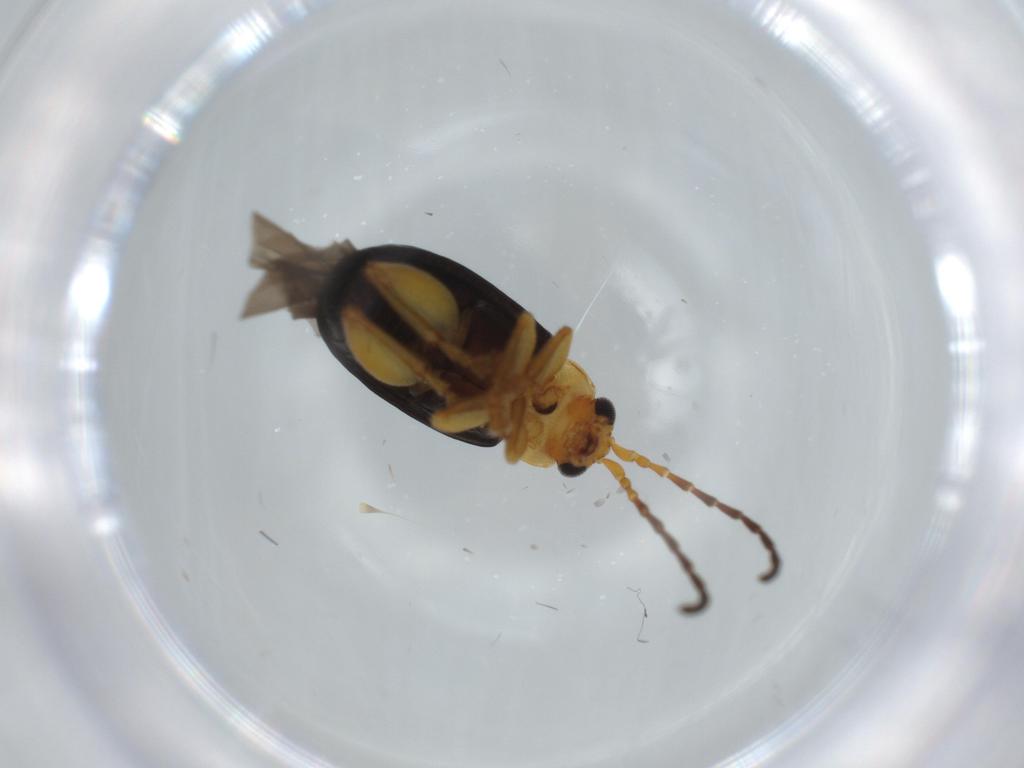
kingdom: Animalia
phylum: Arthropoda
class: Insecta
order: Coleoptera
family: Chrysomelidae
